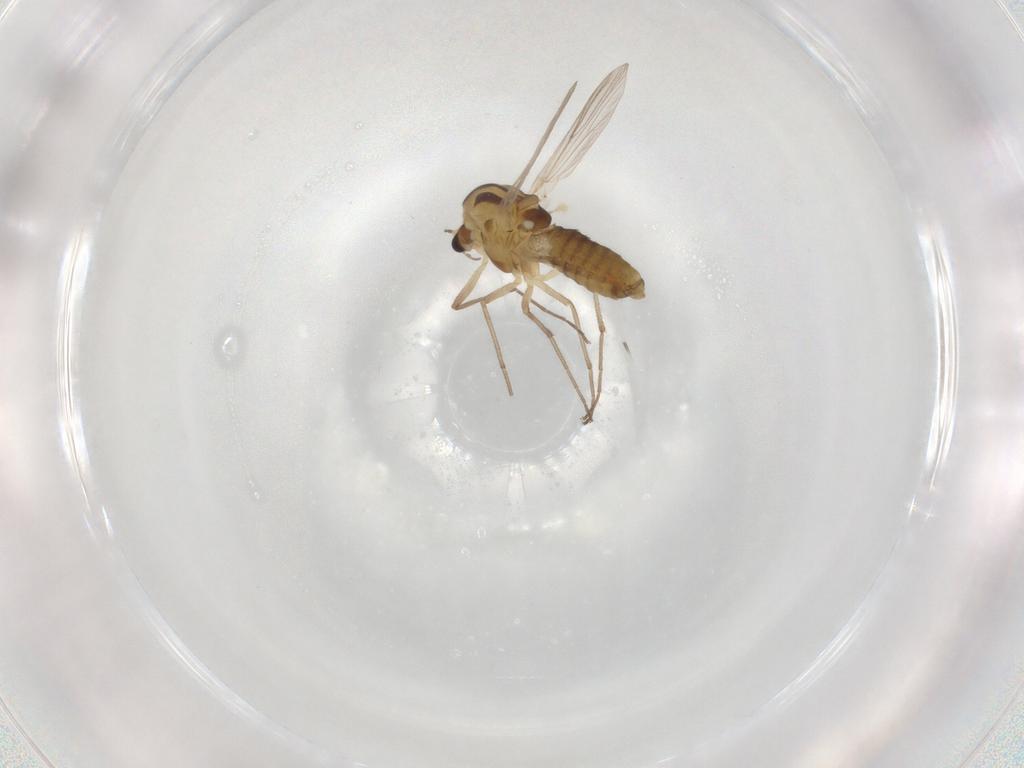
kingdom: Animalia
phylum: Arthropoda
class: Insecta
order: Diptera
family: Chironomidae
